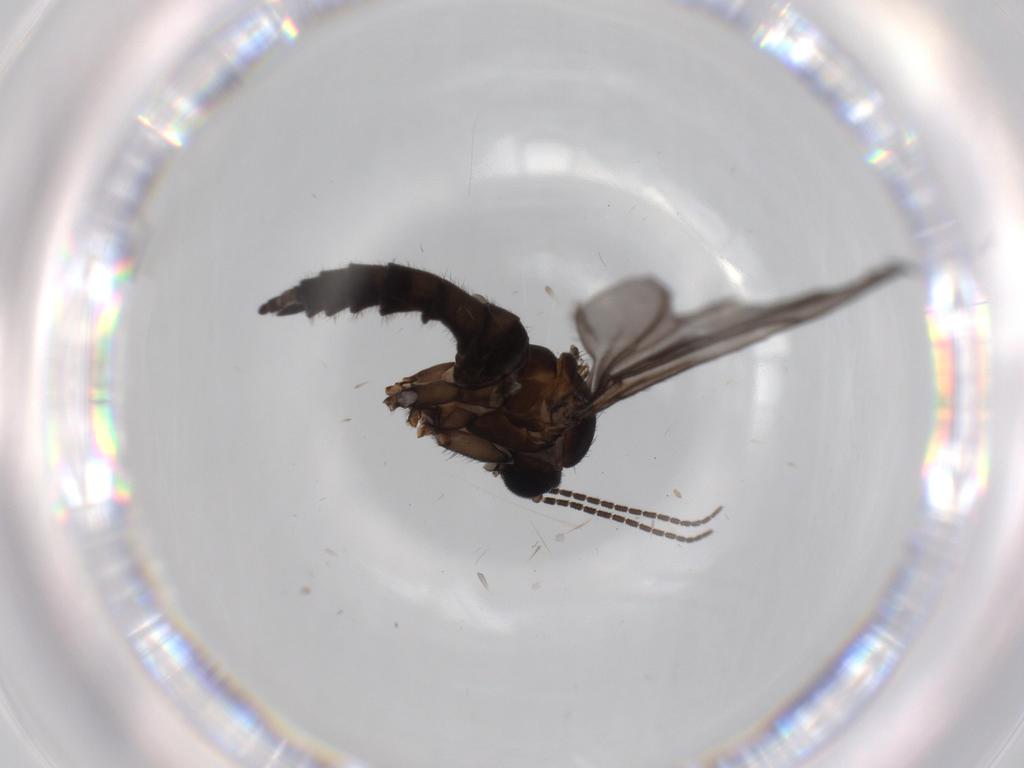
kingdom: Animalia
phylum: Arthropoda
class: Insecta
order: Diptera
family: Sciaridae
